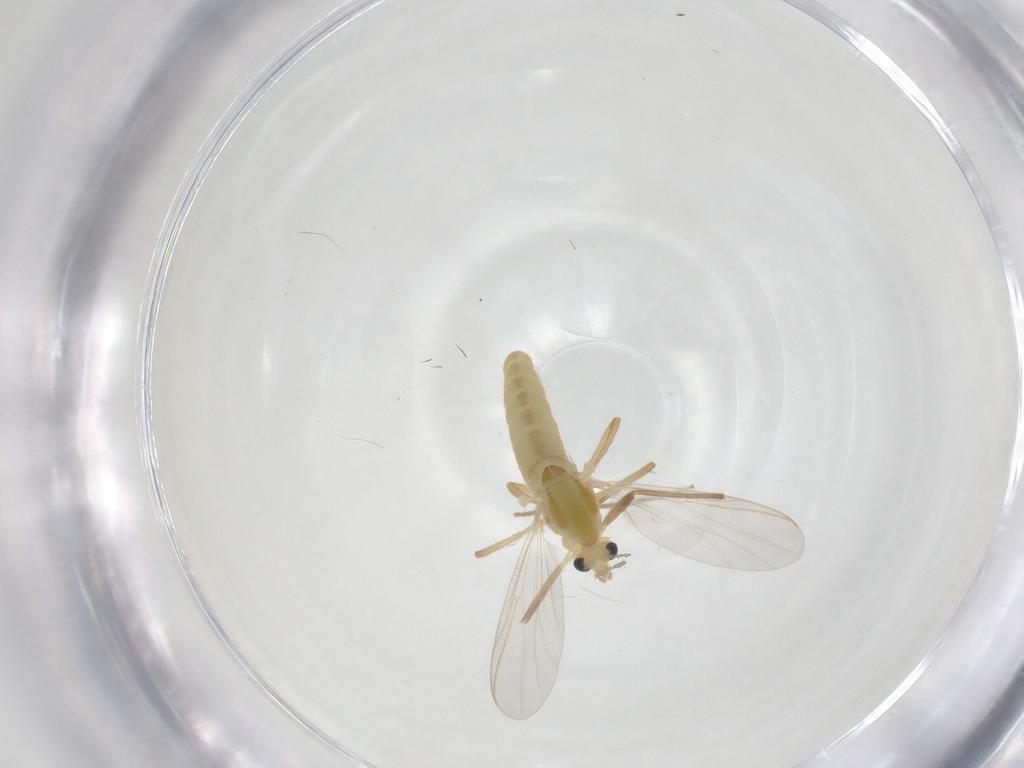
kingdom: Animalia
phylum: Arthropoda
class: Insecta
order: Diptera
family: Chironomidae
